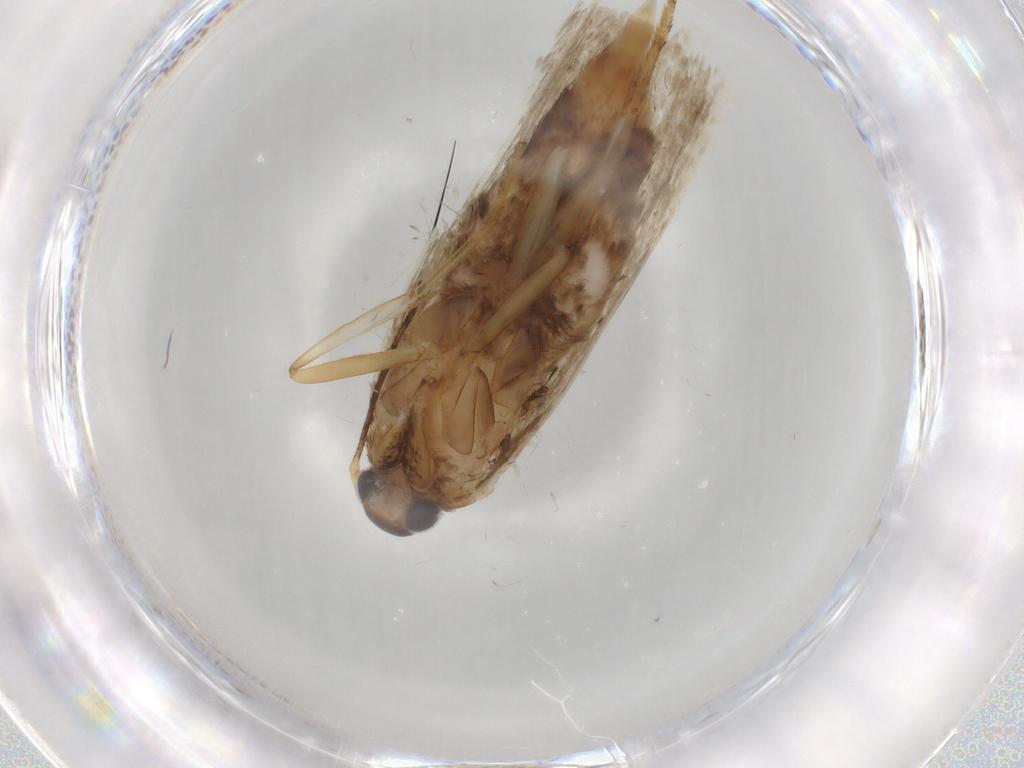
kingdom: Animalia
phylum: Arthropoda
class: Insecta
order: Lepidoptera
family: Blastobasidae
